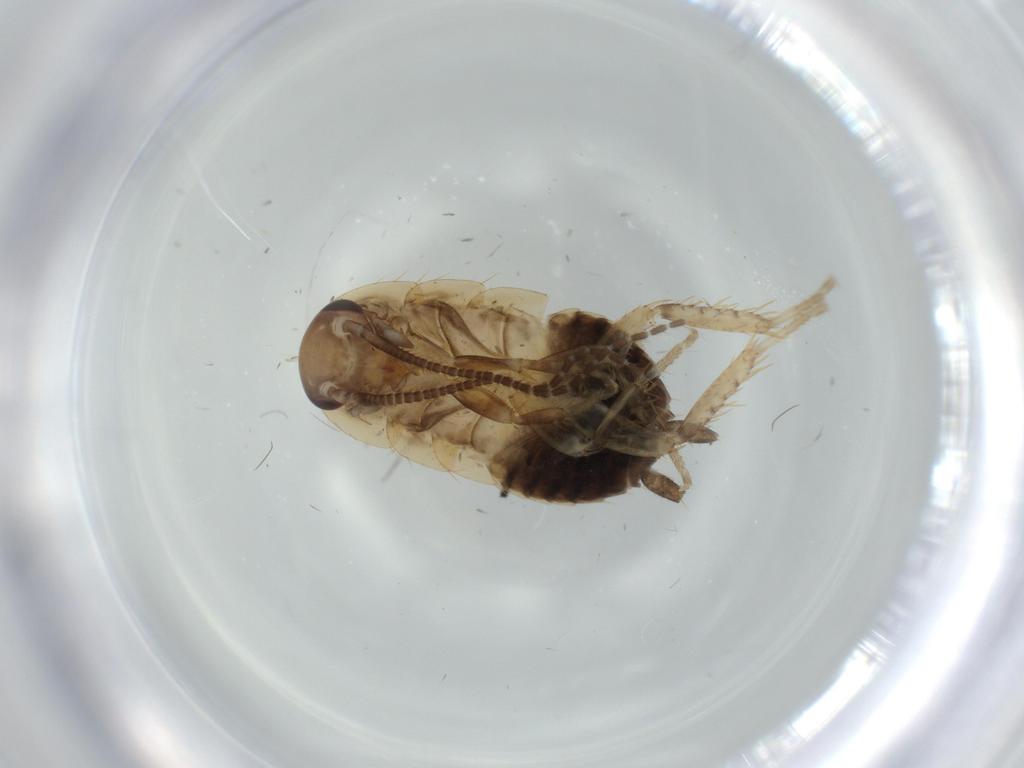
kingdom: Animalia
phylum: Arthropoda
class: Insecta
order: Blattodea
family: Ectobiidae
